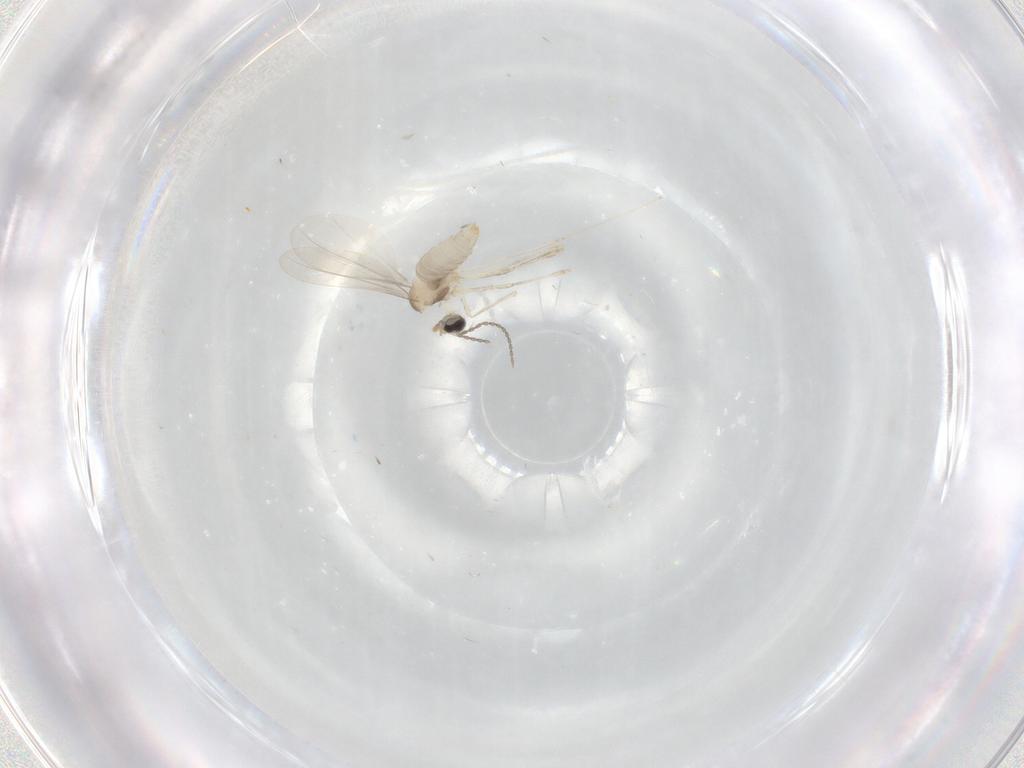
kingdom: Animalia
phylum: Arthropoda
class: Insecta
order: Diptera
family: Cecidomyiidae
